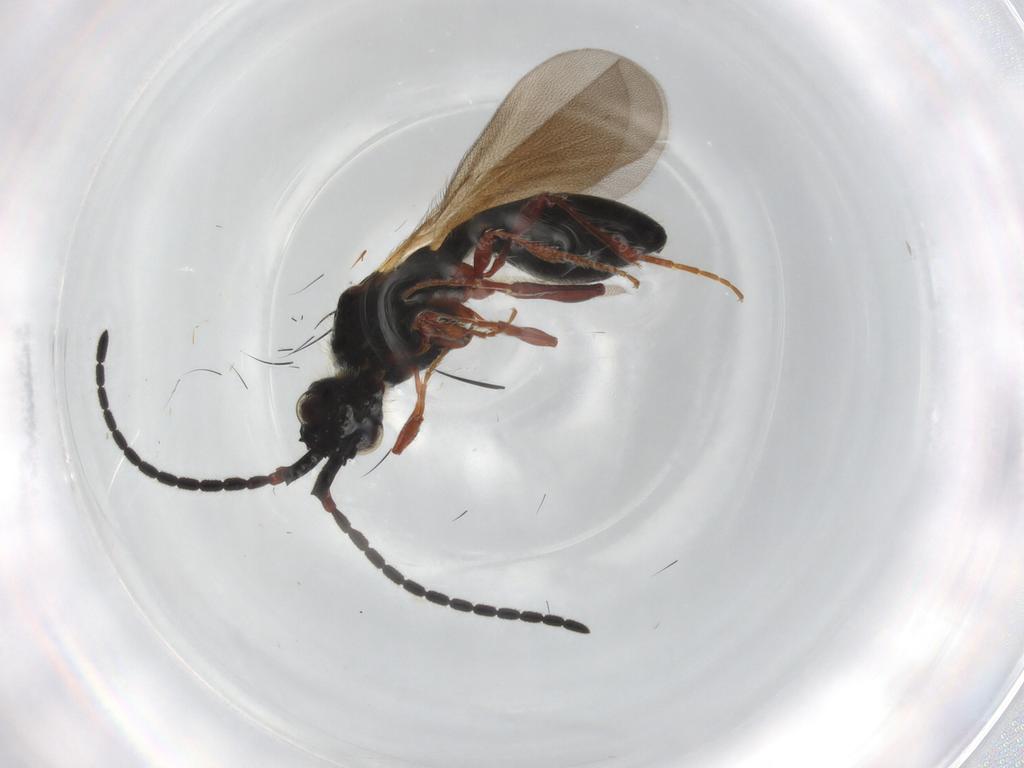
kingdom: Animalia
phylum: Arthropoda
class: Insecta
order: Hymenoptera
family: Diapriidae
